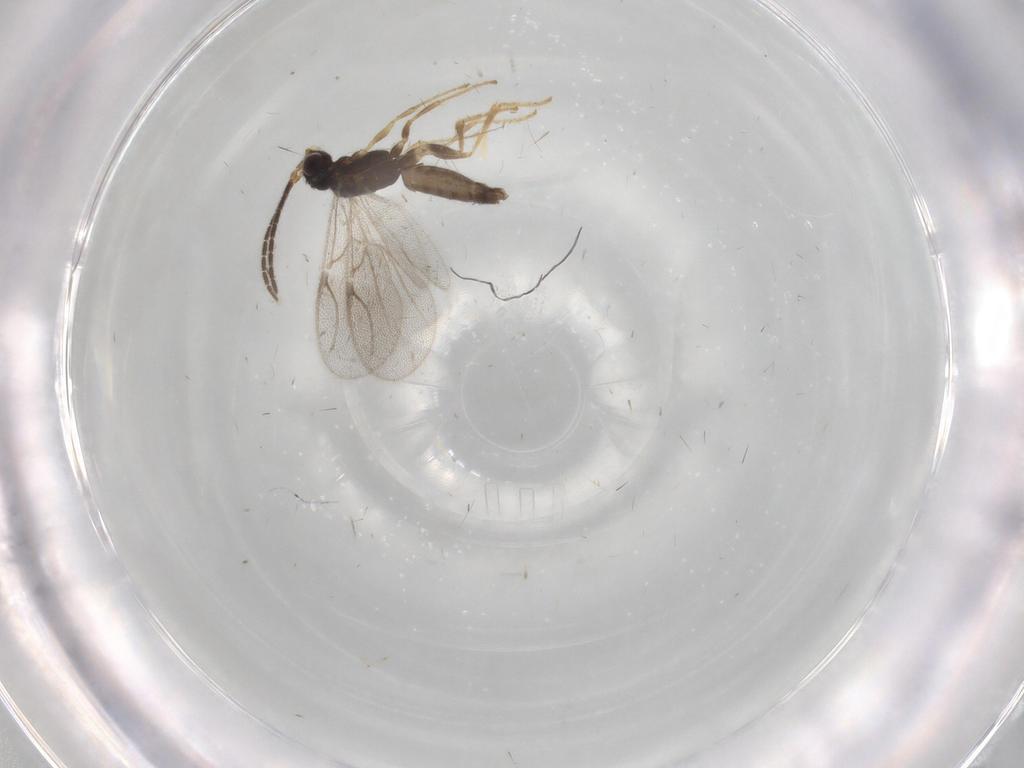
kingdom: Animalia
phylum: Arthropoda
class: Insecta
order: Hymenoptera
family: Dryinidae
